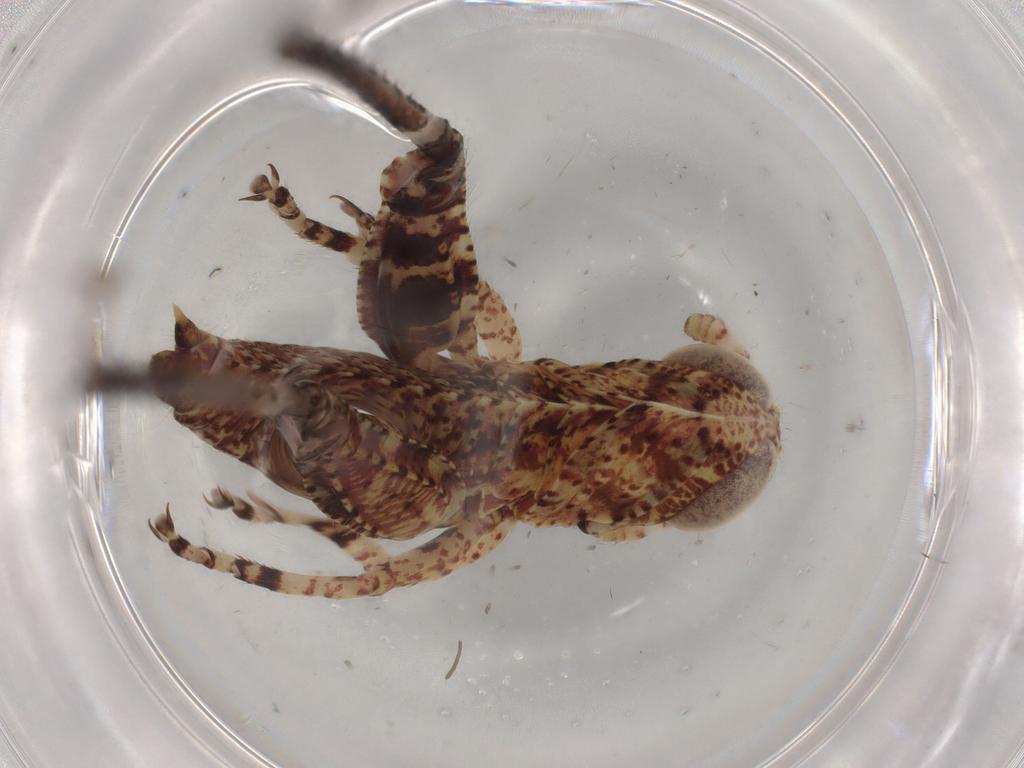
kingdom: Animalia
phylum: Arthropoda
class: Insecta
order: Orthoptera
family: Acrididae
